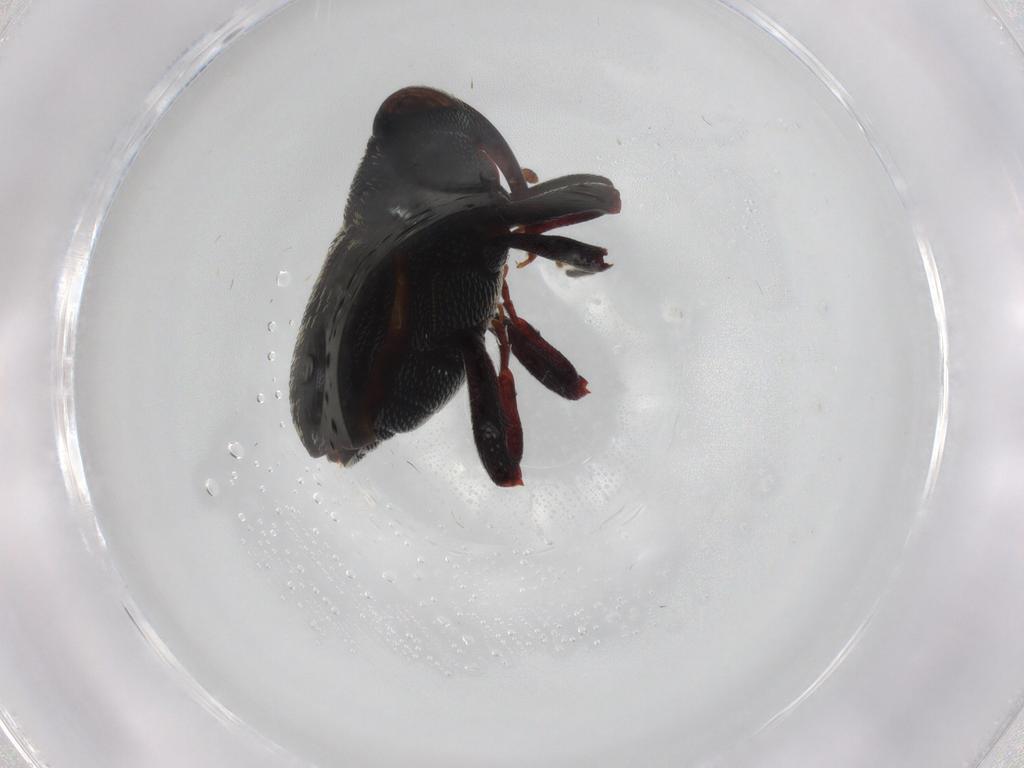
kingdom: Animalia
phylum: Arthropoda
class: Insecta
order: Coleoptera
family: Curculionidae
